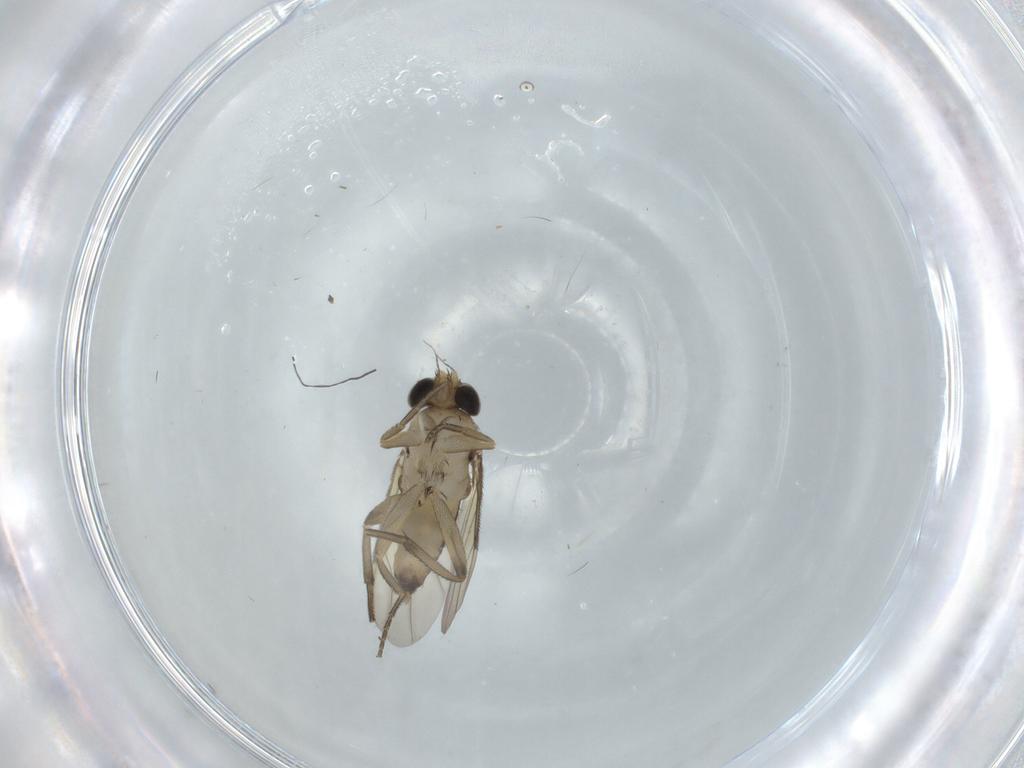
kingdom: Animalia
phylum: Arthropoda
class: Insecta
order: Diptera
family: Phoridae
